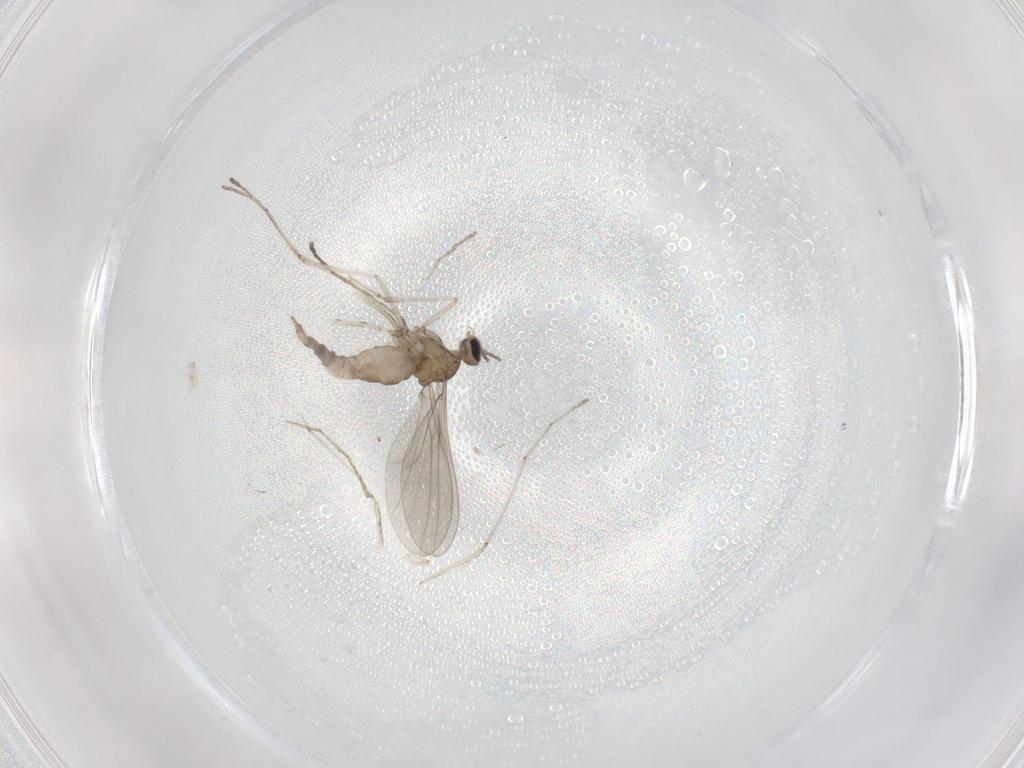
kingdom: Animalia
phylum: Arthropoda
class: Insecta
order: Diptera
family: Cecidomyiidae
